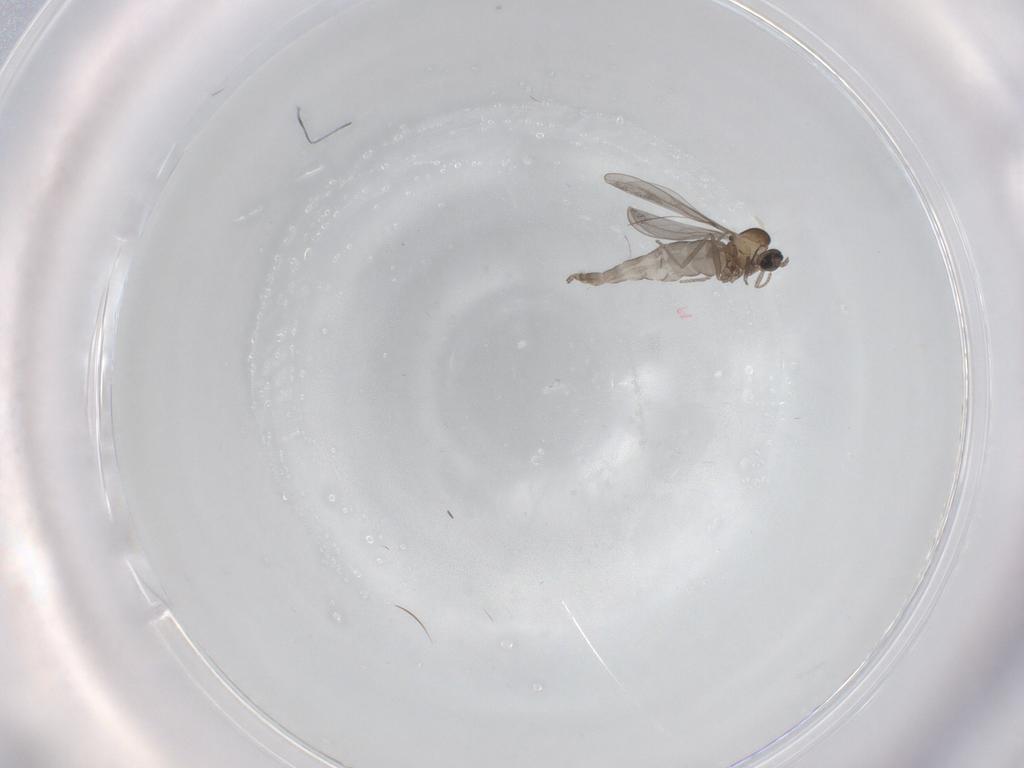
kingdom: Animalia
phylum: Arthropoda
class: Insecta
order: Diptera
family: Cecidomyiidae
